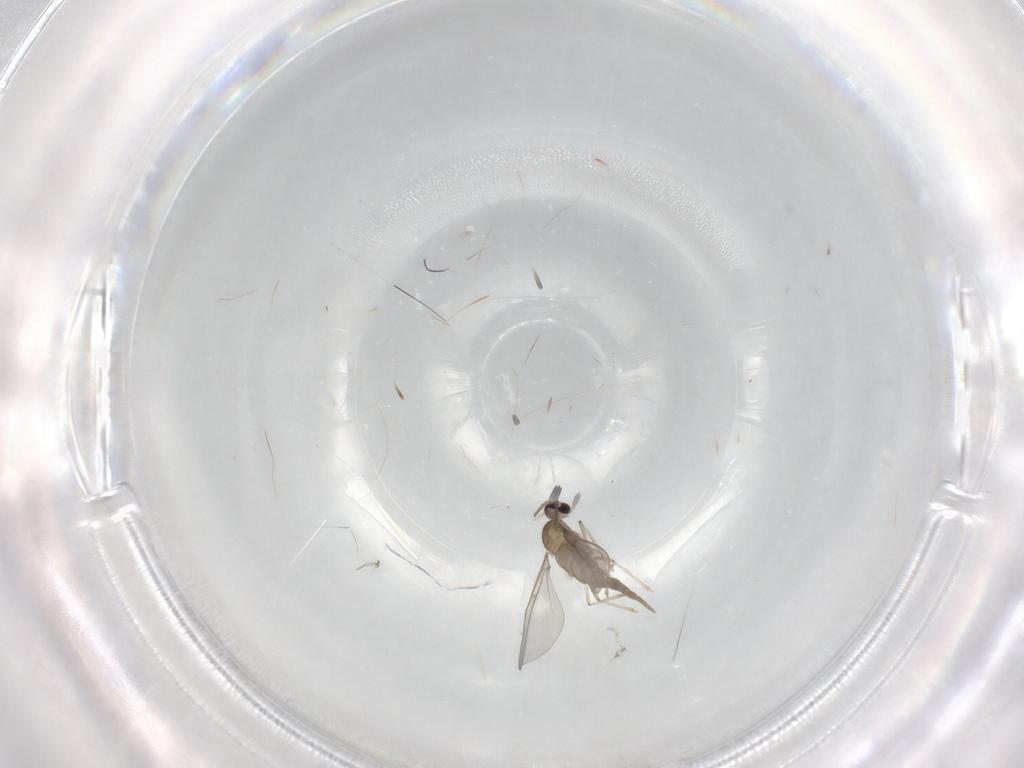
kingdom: Animalia
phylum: Arthropoda
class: Insecta
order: Diptera
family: Cecidomyiidae
